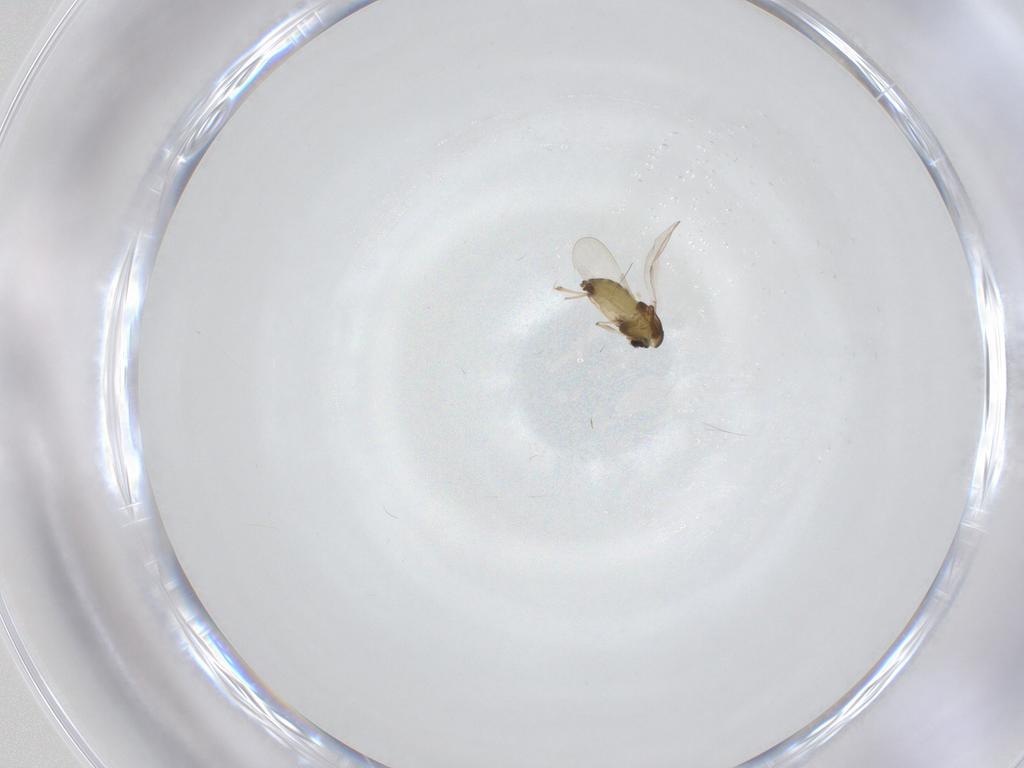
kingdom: Animalia
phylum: Arthropoda
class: Insecta
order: Diptera
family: Chironomidae
